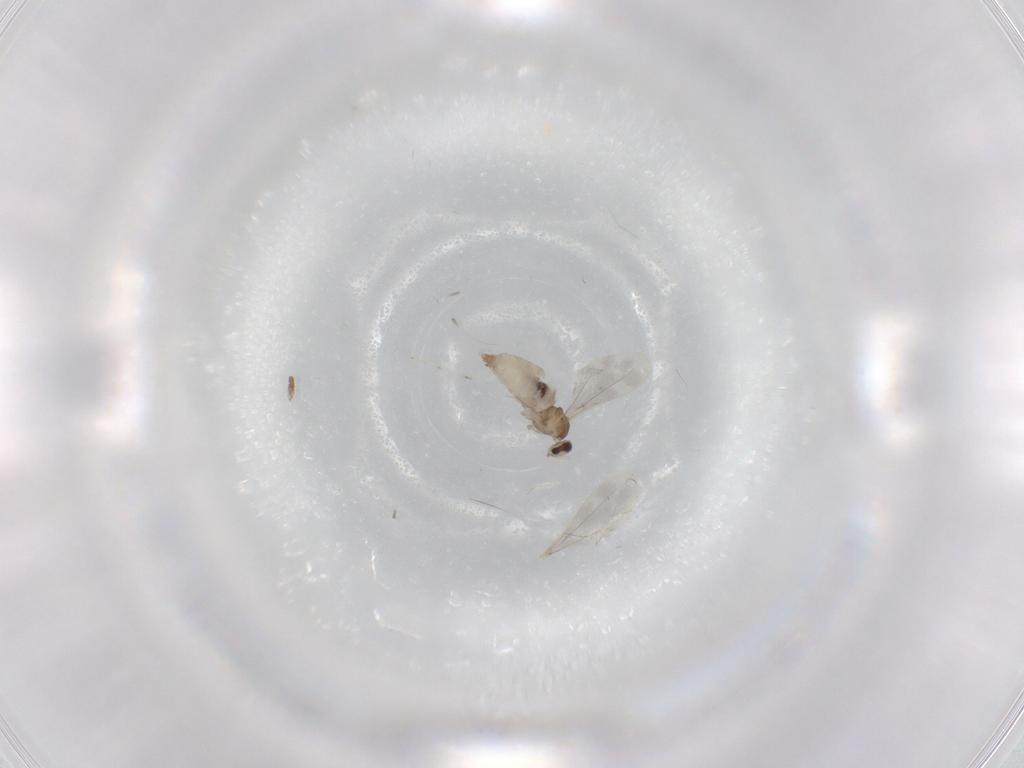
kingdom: Animalia
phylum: Arthropoda
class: Insecta
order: Diptera
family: Cecidomyiidae
